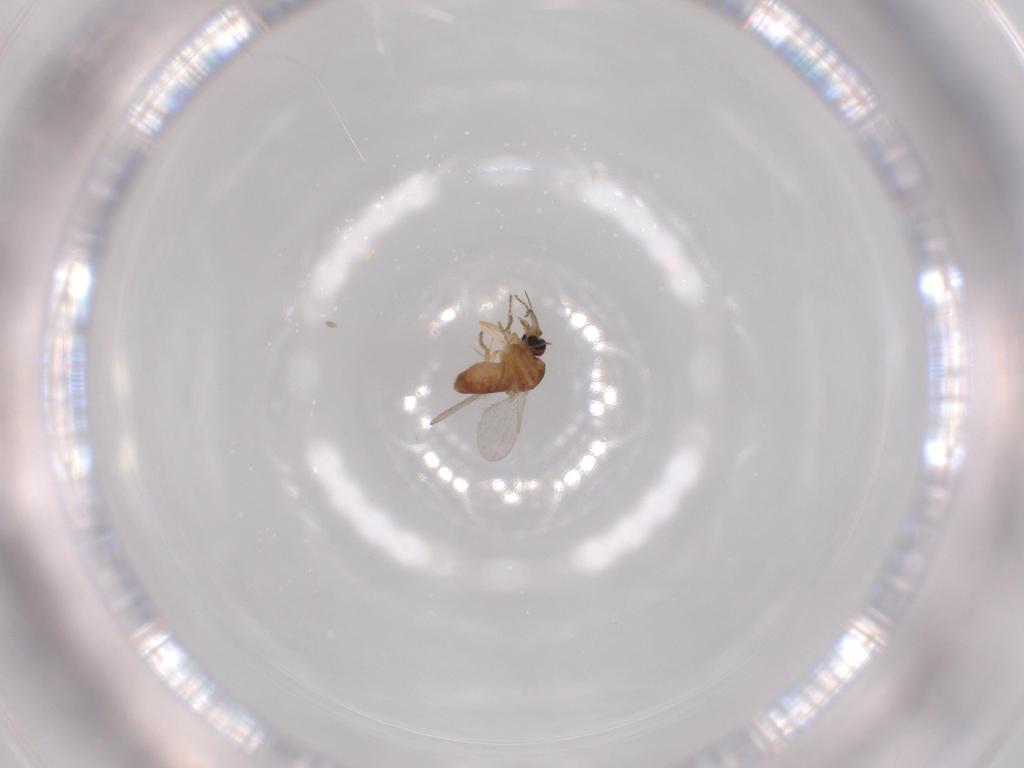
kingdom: Animalia
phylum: Arthropoda
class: Insecta
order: Diptera
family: Ceratopogonidae
